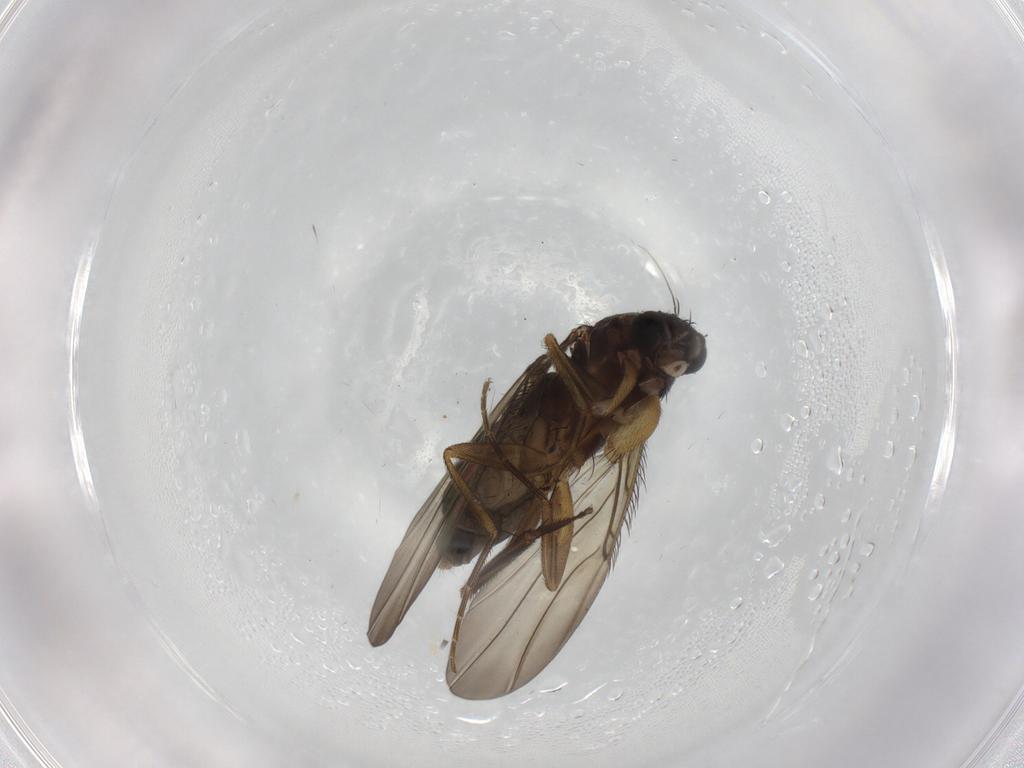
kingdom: Animalia
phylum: Arthropoda
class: Insecta
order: Diptera
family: Phoridae
